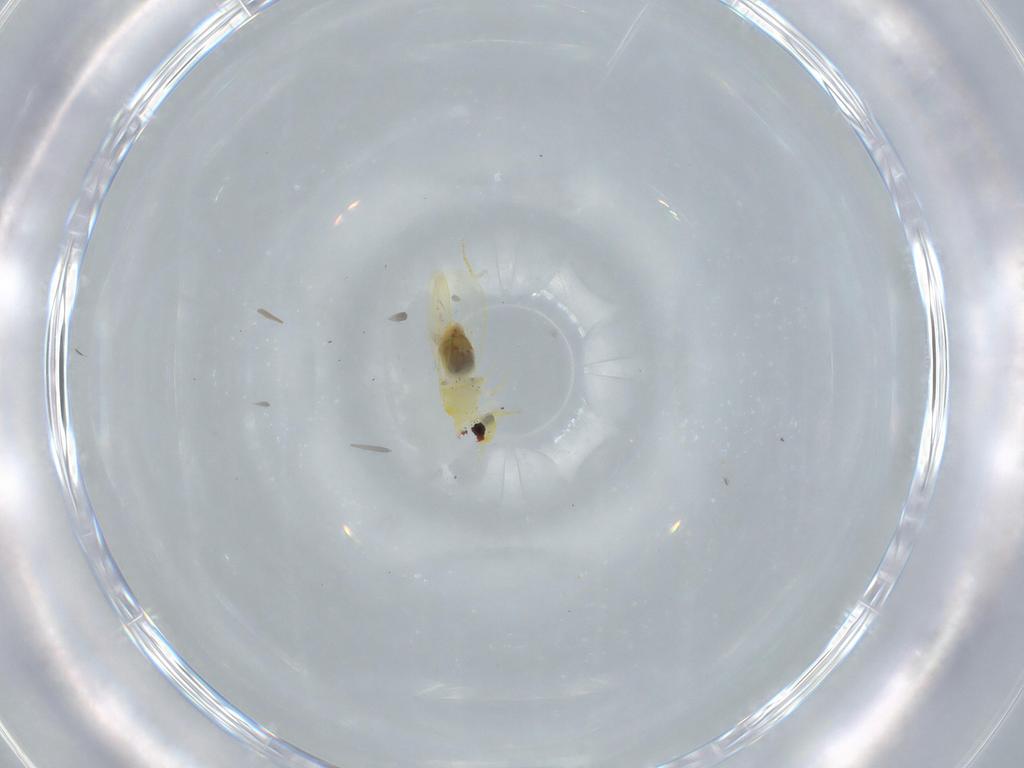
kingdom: Animalia
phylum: Arthropoda
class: Insecta
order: Hemiptera
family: Aleyrodidae
